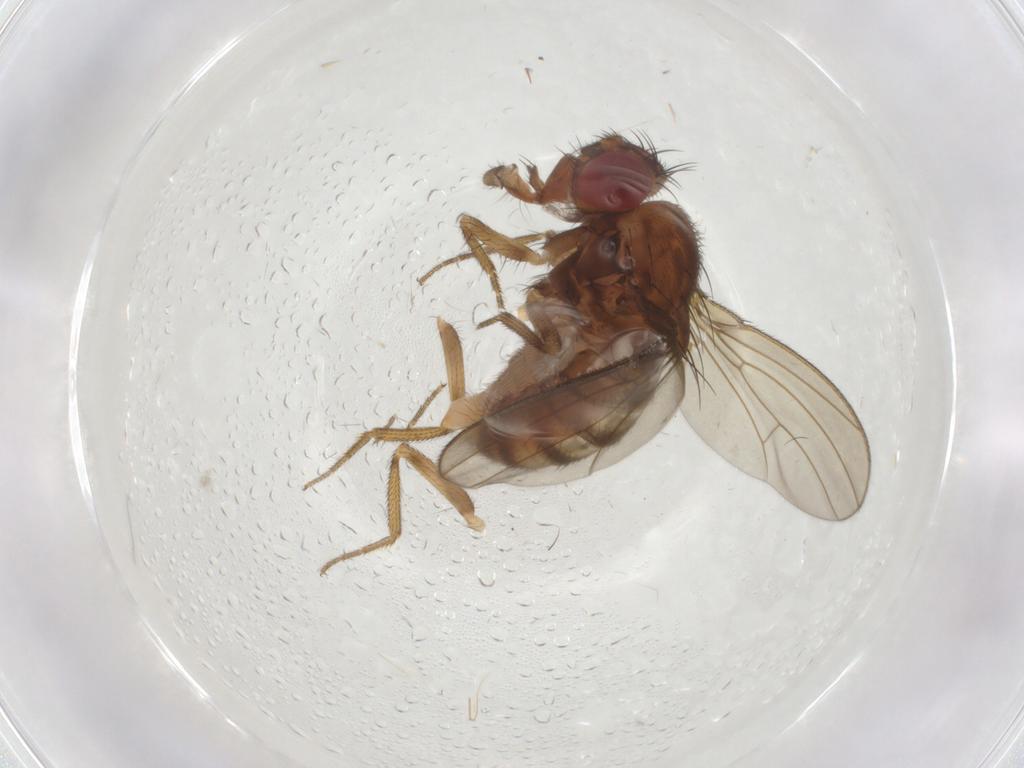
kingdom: Animalia
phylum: Arthropoda
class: Insecta
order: Diptera
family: Drosophilidae
